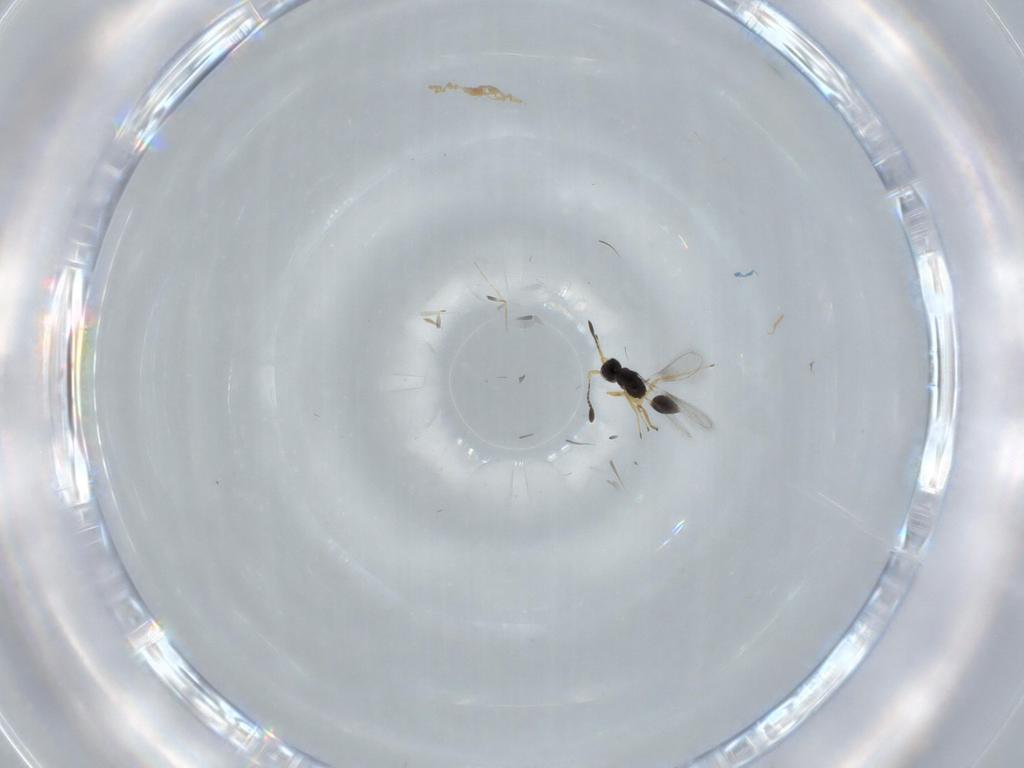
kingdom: Animalia
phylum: Arthropoda
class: Insecta
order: Hymenoptera
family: Mymaridae
